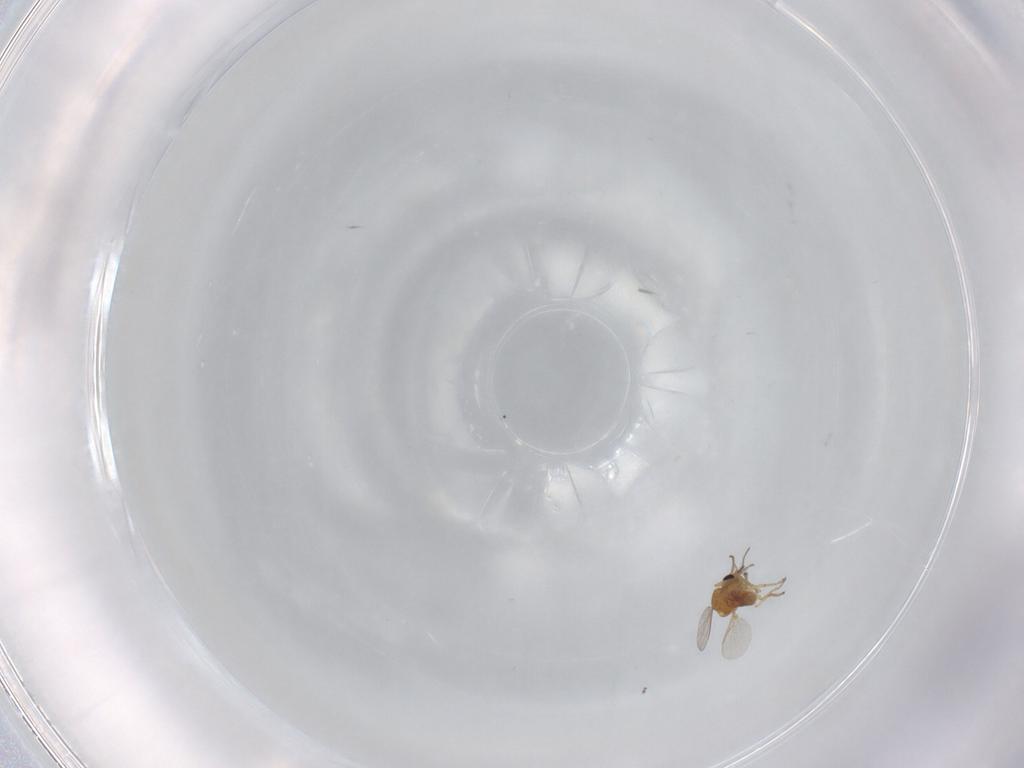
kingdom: Animalia
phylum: Arthropoda
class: Insecta
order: Diptera
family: Ceratopogonidae
